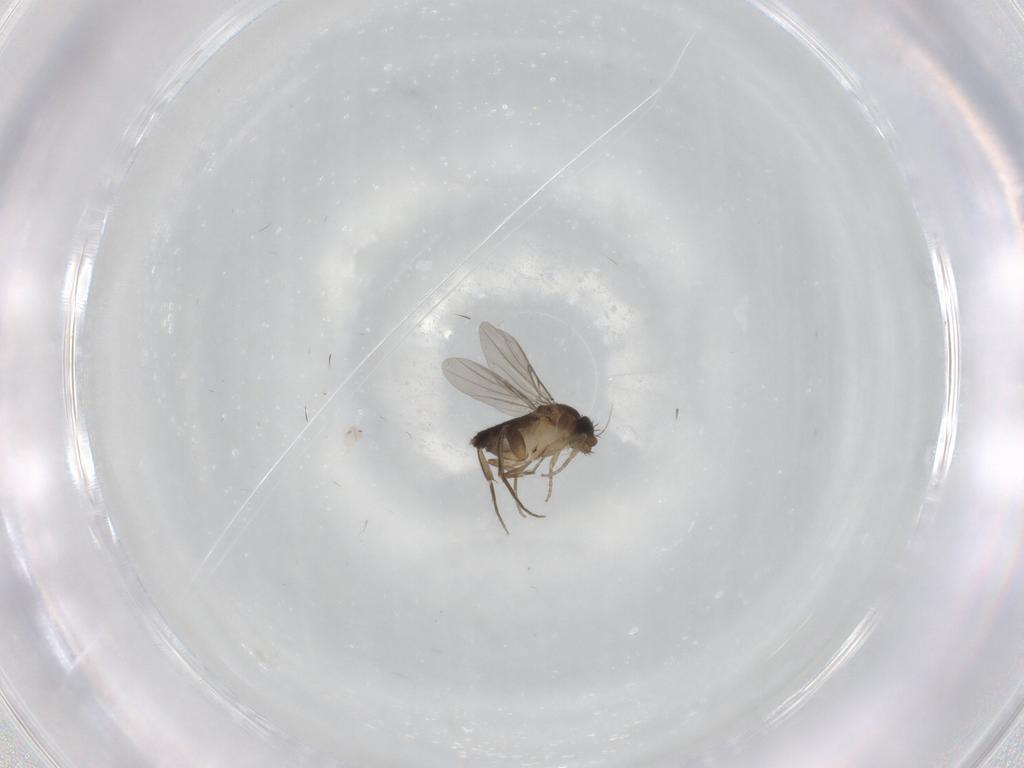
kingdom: Animalia
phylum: Arthropoda
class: Insecta
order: Diptera
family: Phoridae
